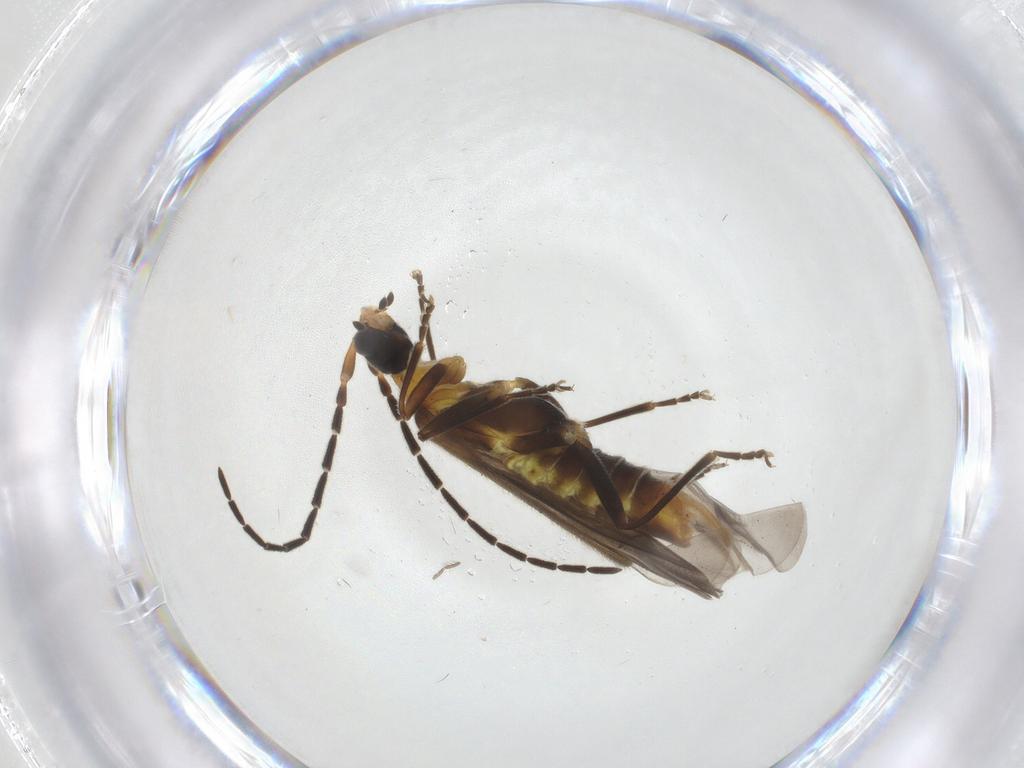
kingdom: Animalia
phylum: Arthropoda
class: Insecta
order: Coleoptera
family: Cantharidae
